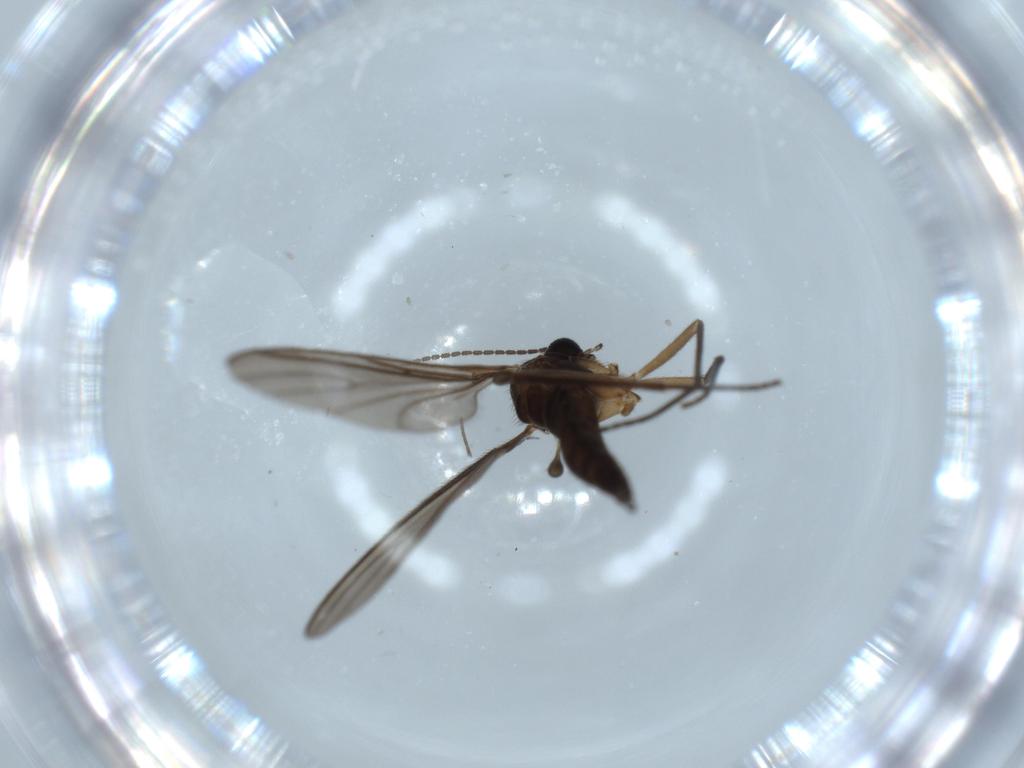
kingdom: Animalia
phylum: Arthropoda
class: Insecta
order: Diptera
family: Sciaridae
